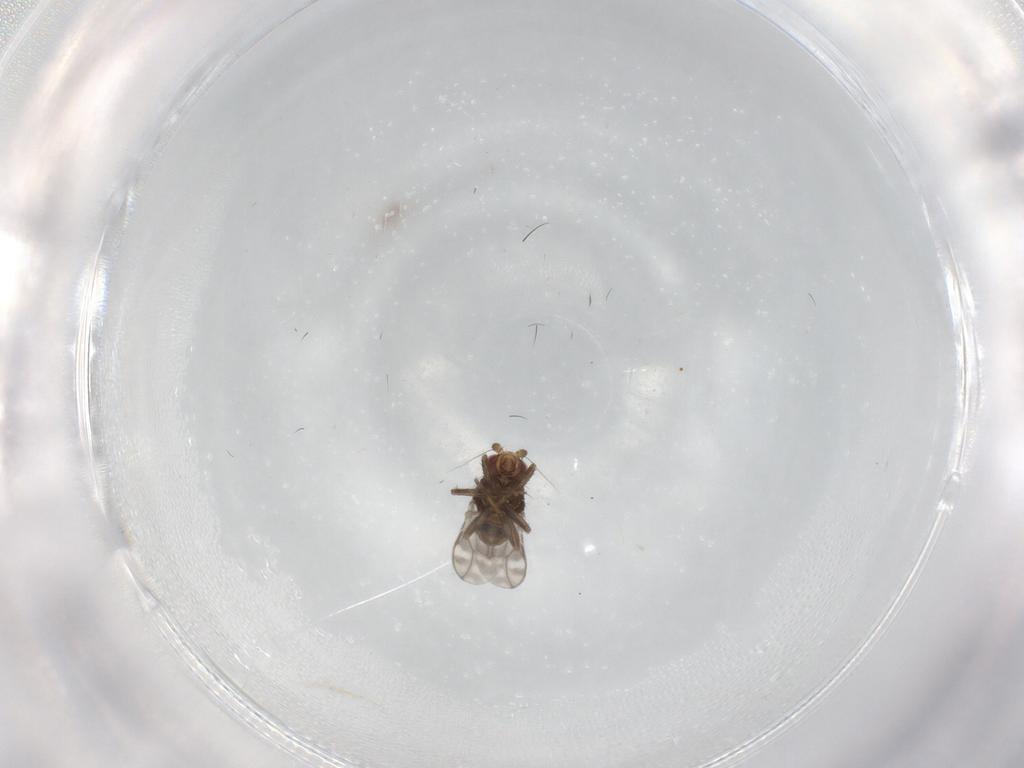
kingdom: Animalia
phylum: Arthropoda
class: Insecta
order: Diptera
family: Sphaeroceridae
